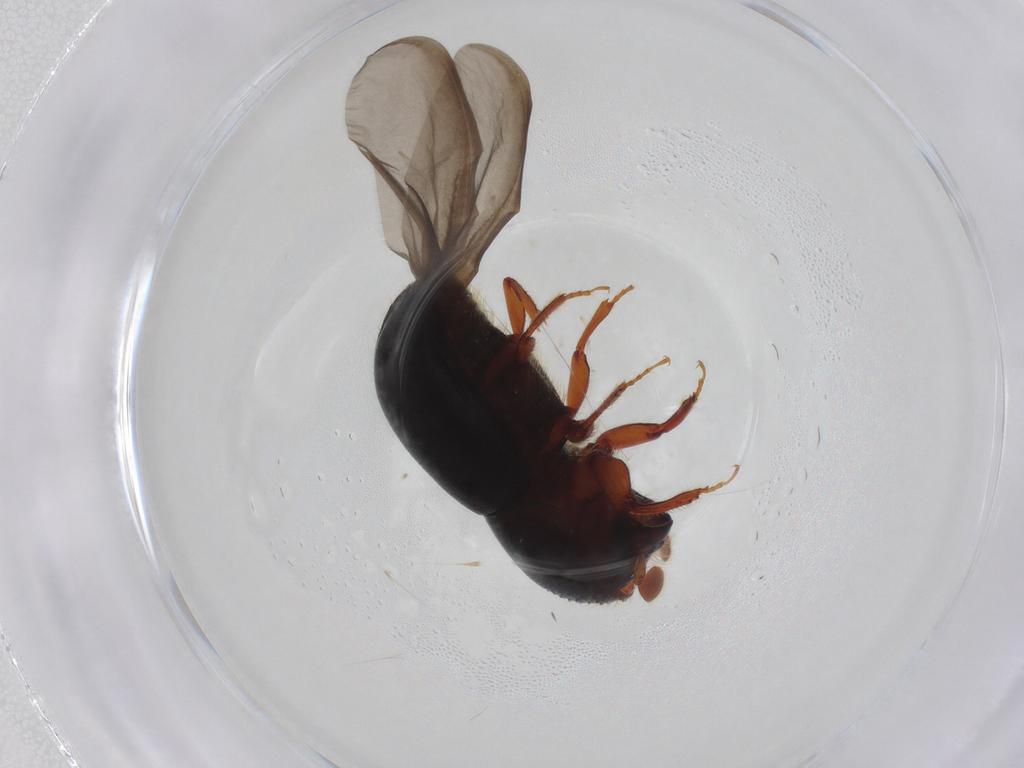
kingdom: Animalia
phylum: Arthropoda
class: Insecta
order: Coleoptera
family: Curculionidae
